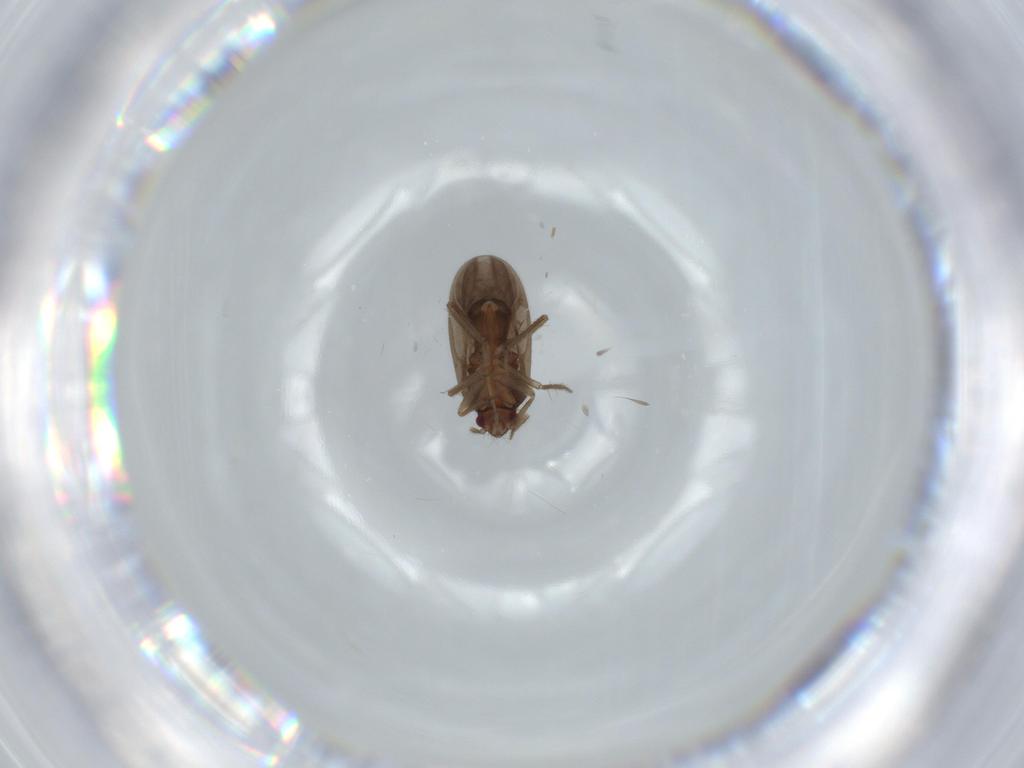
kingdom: Animalia
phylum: Arthropoda
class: Insecta
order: Hemiptera
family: Ceratocombidae
